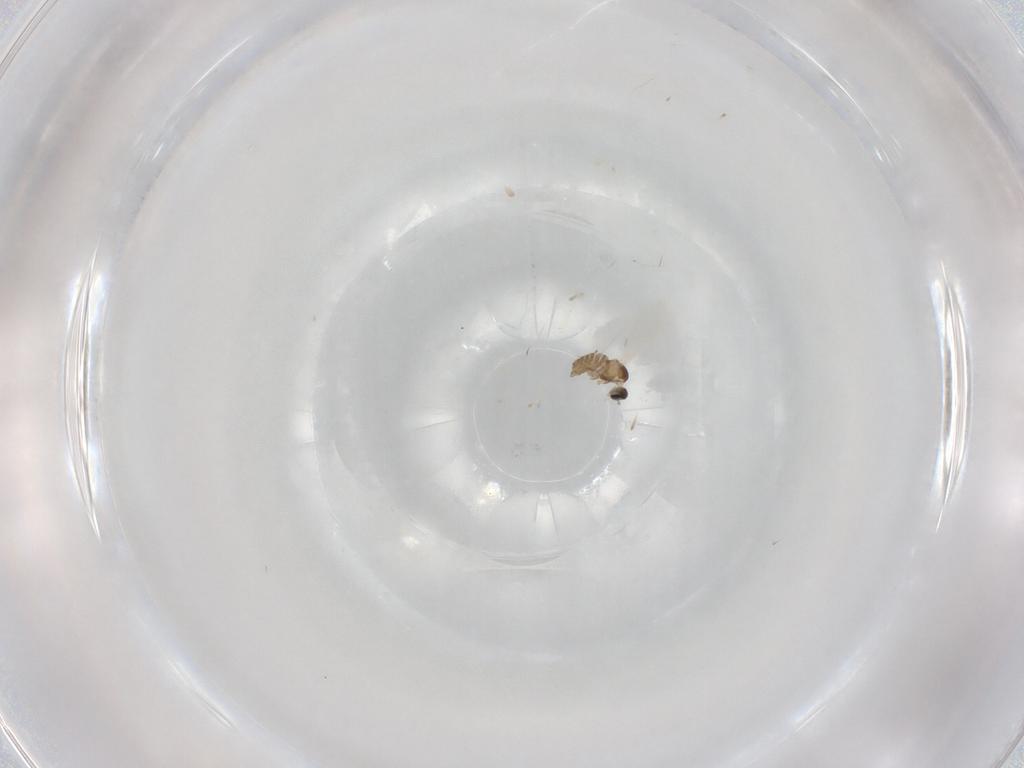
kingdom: Animalia
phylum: Arthropoda
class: Insecta
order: Diptera
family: Cecidomyiidae
